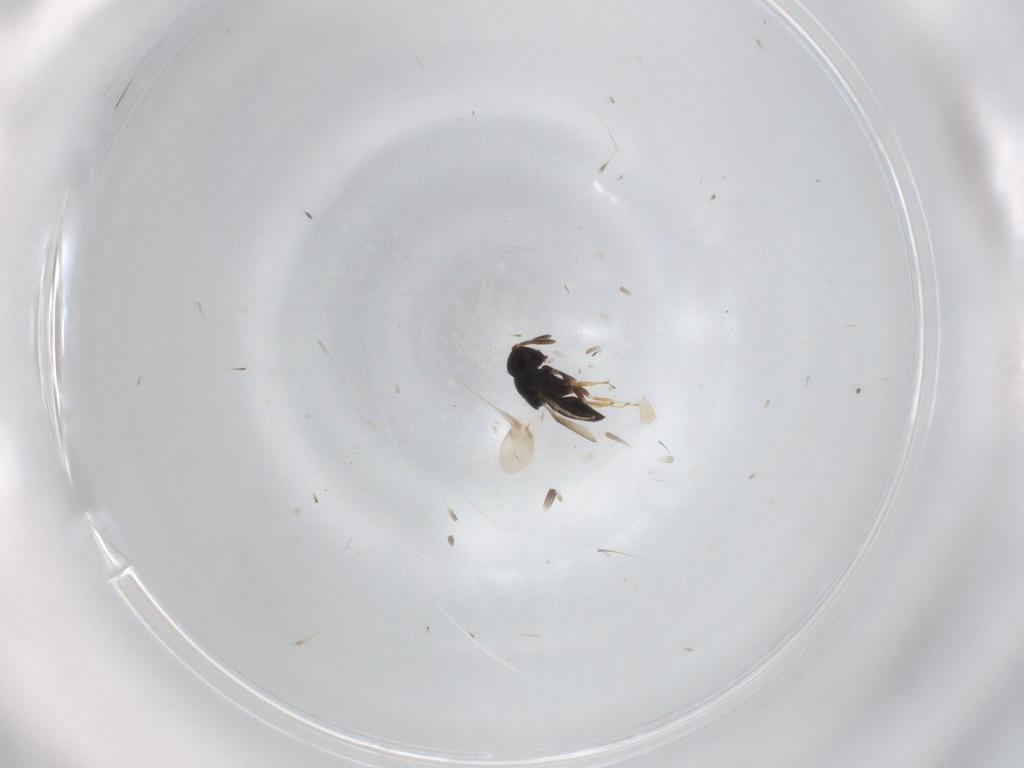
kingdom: Animalia
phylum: Arthropoda
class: Insecta
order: Hymenoptera
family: Scelionidae
